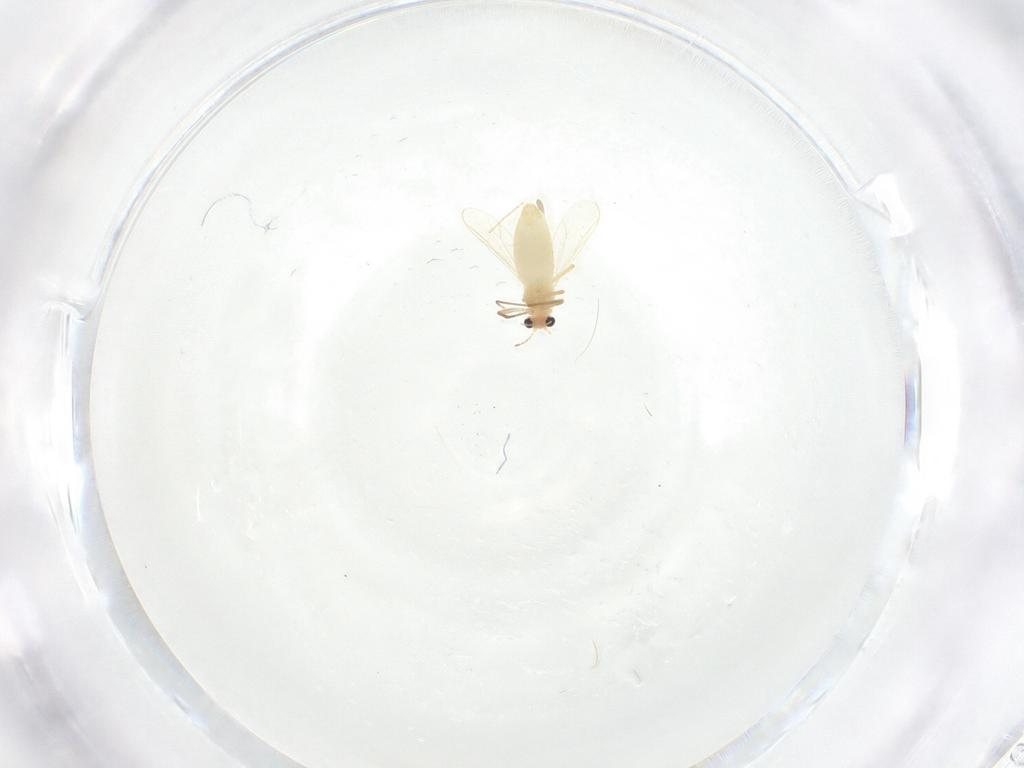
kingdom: Animalia
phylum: Arthropoda
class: Insecta
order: Diptera
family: Chironomidae
